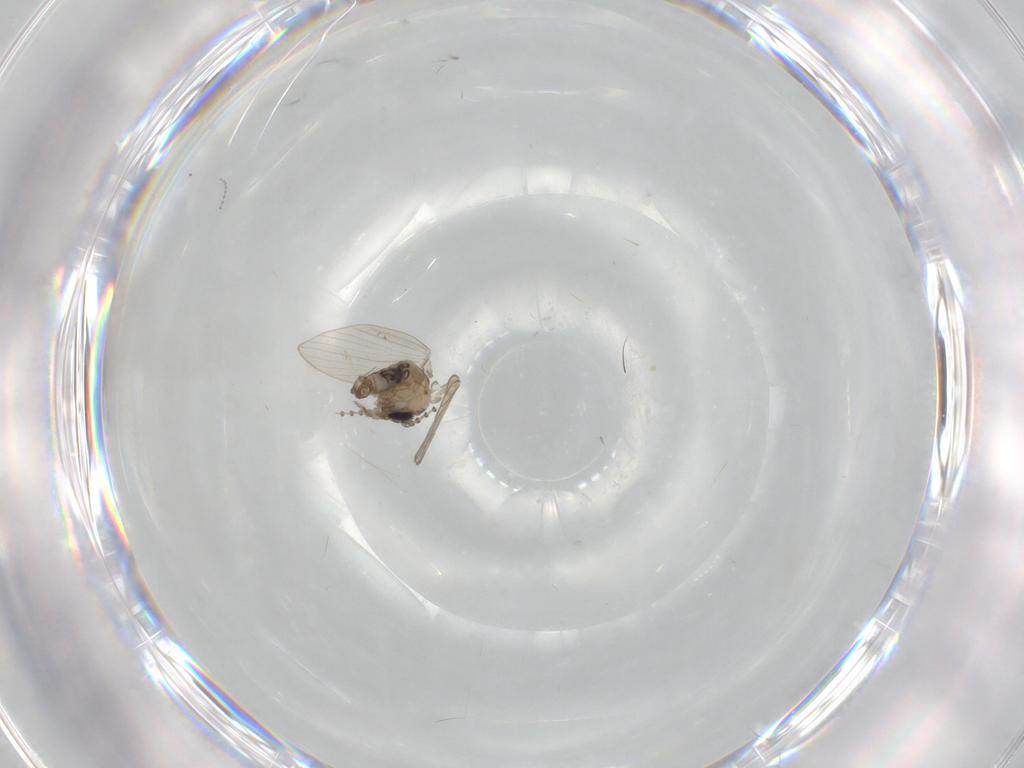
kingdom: Animalia
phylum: Arthropoda
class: Insecta
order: Diptera
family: Psychodidae
